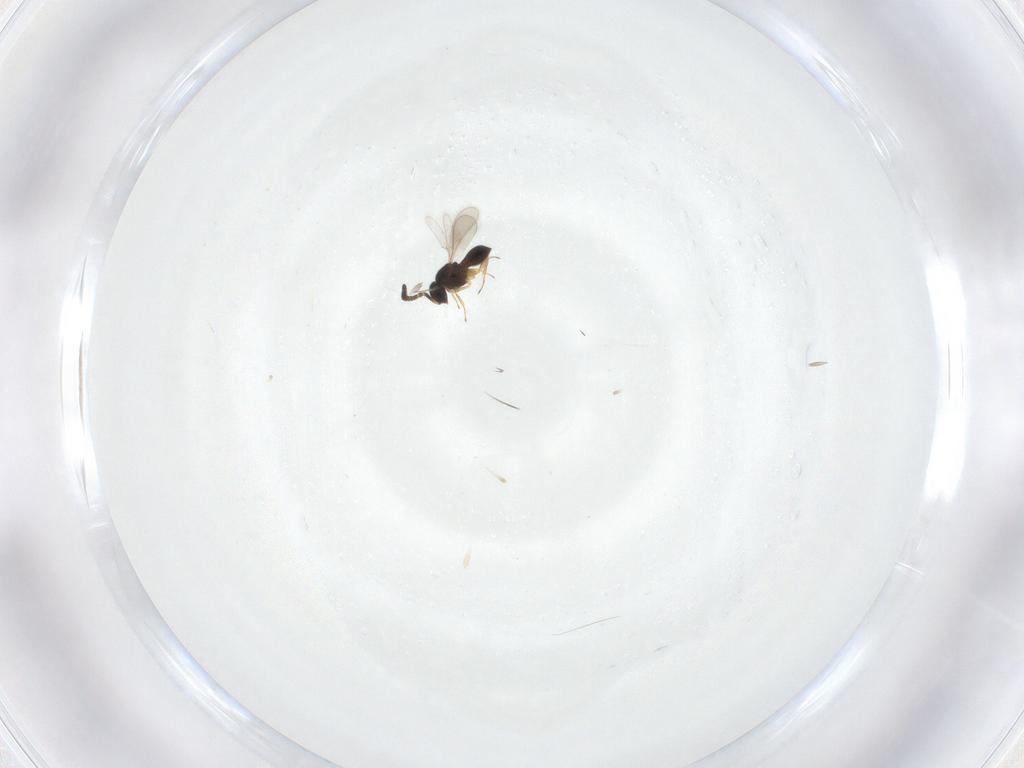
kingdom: Animalia
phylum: Arthropoda
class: Insecta
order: Hymenoptera
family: Scelionidae
